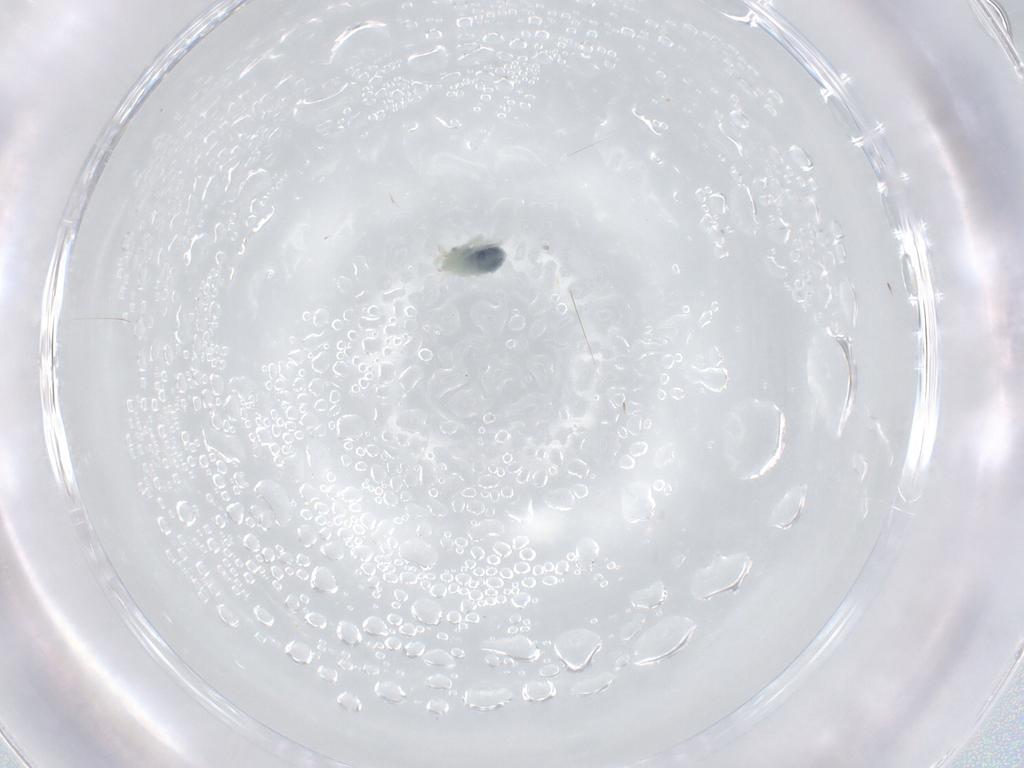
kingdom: Animalia
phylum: Arthropoda
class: Arachnida
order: Trombidiformes
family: Anystidae
